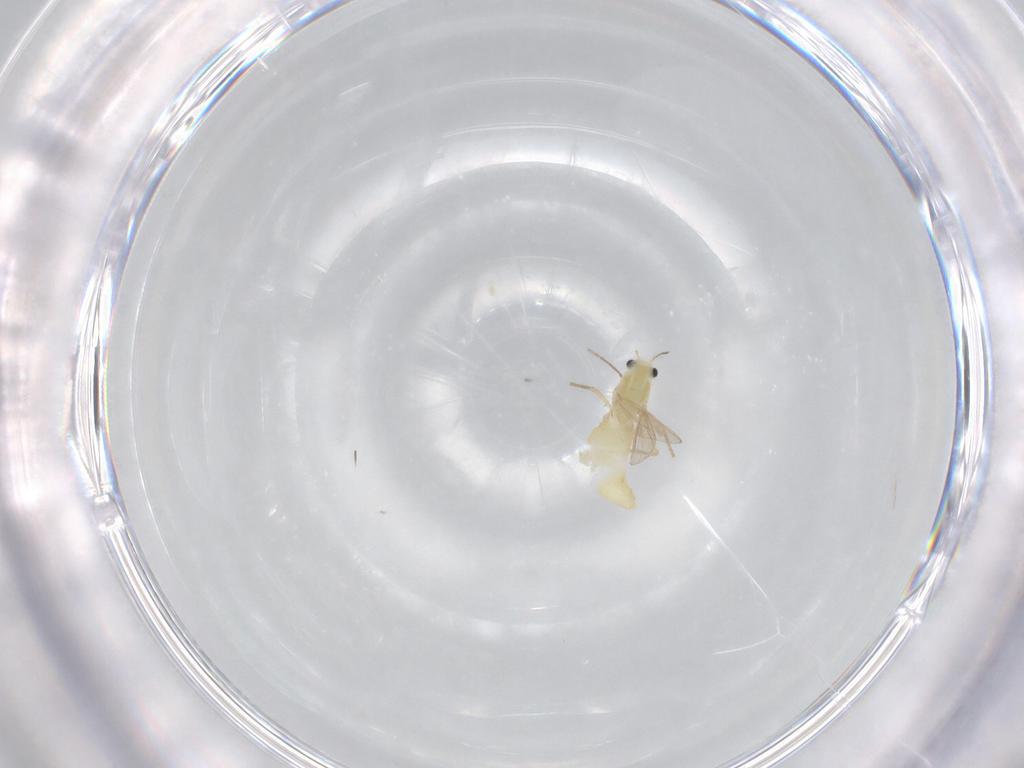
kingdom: Animalia
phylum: Arthropoda
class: Insecta
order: Diptera
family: Chironomidae
